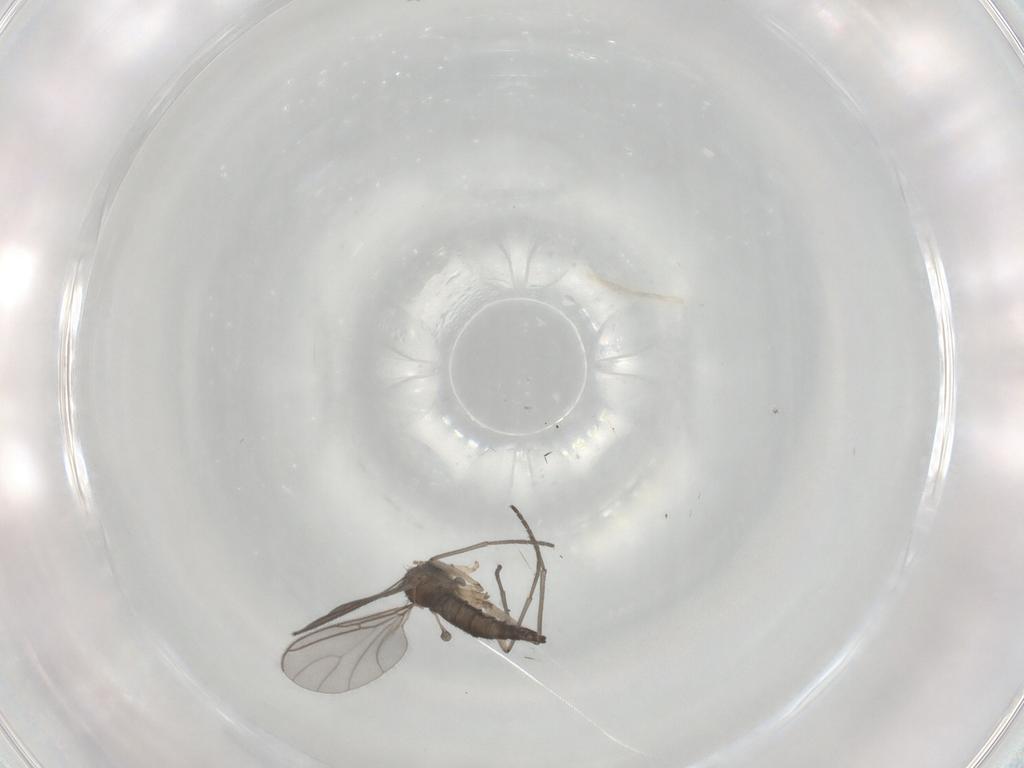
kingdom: Animalia
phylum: Arthropoda
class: Insecta
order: Diptera
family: Sciaridae
